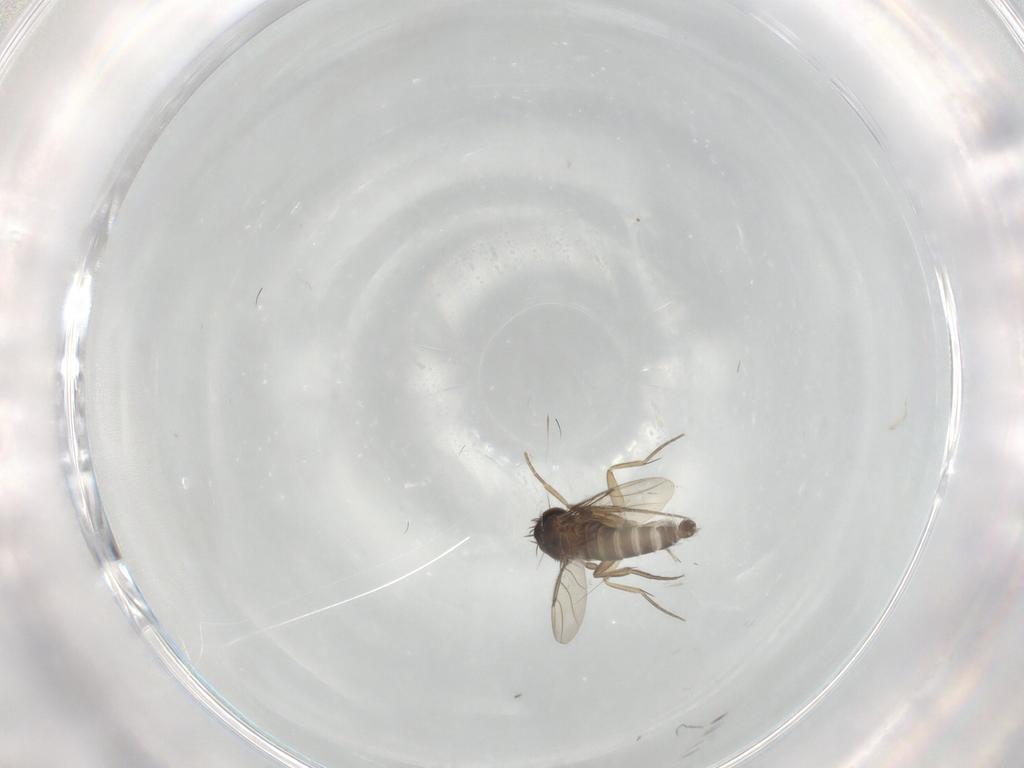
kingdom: Animalia
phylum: Arthropoda
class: Insecta
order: Diptera
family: Phoridae
